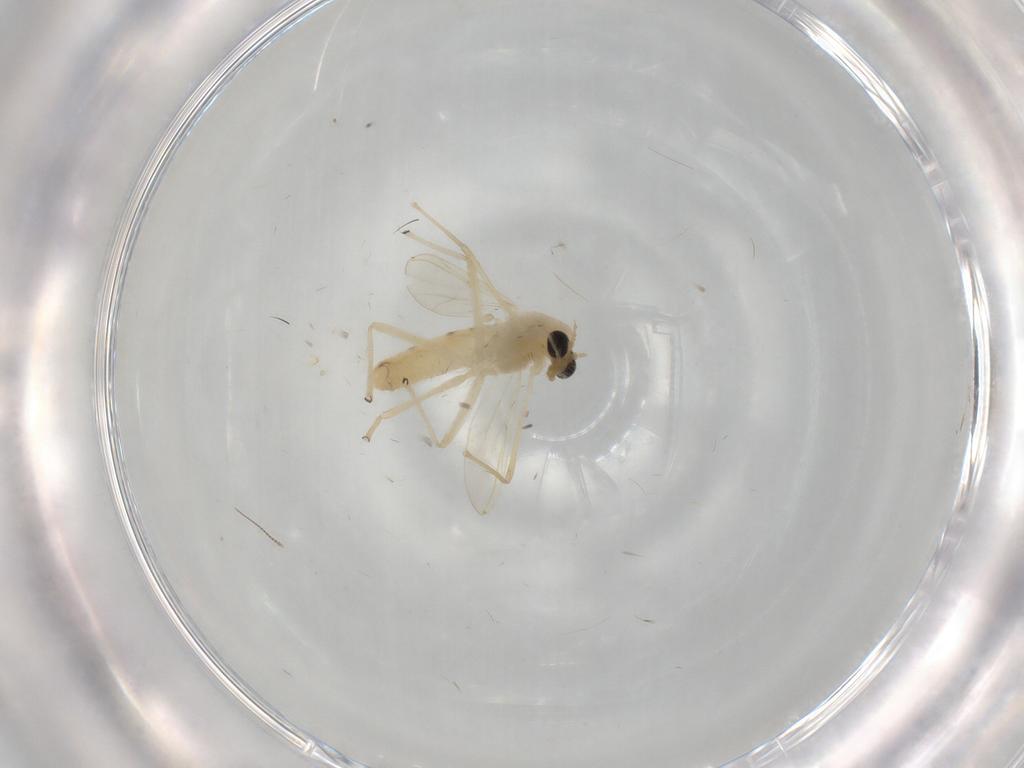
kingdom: Animalia
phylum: Arthropoda
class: Insecta
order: Diptera
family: Chironomidae
